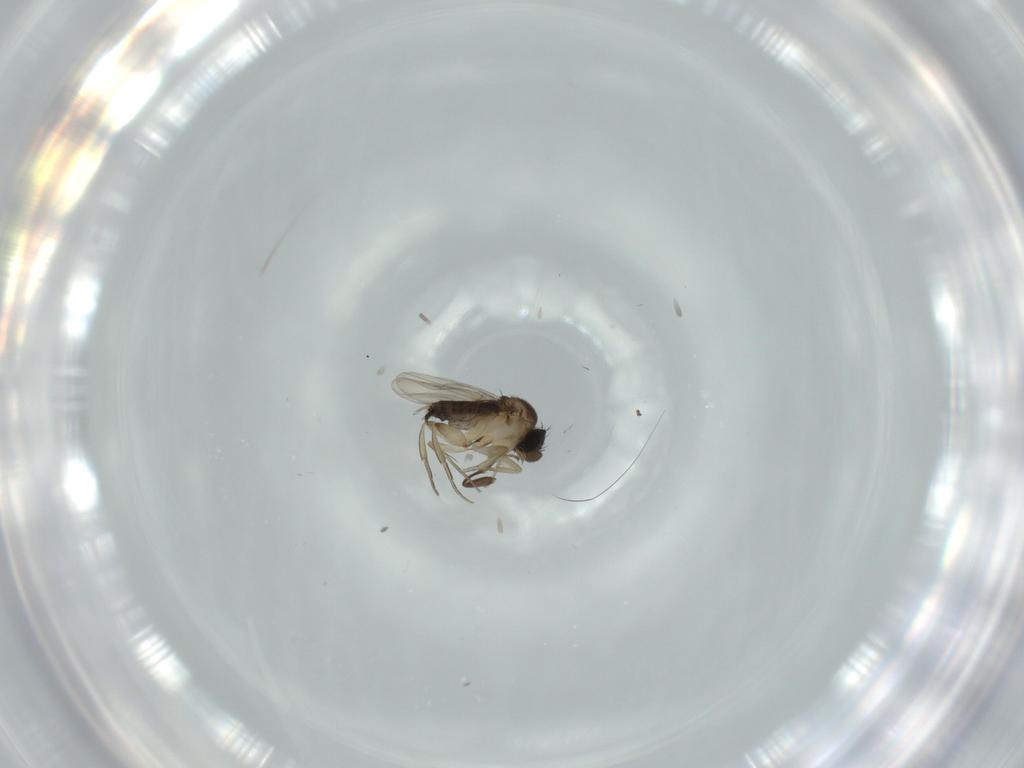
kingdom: Animalia
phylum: Arthropoda
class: Insecta
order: Diptera
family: Phoridae
